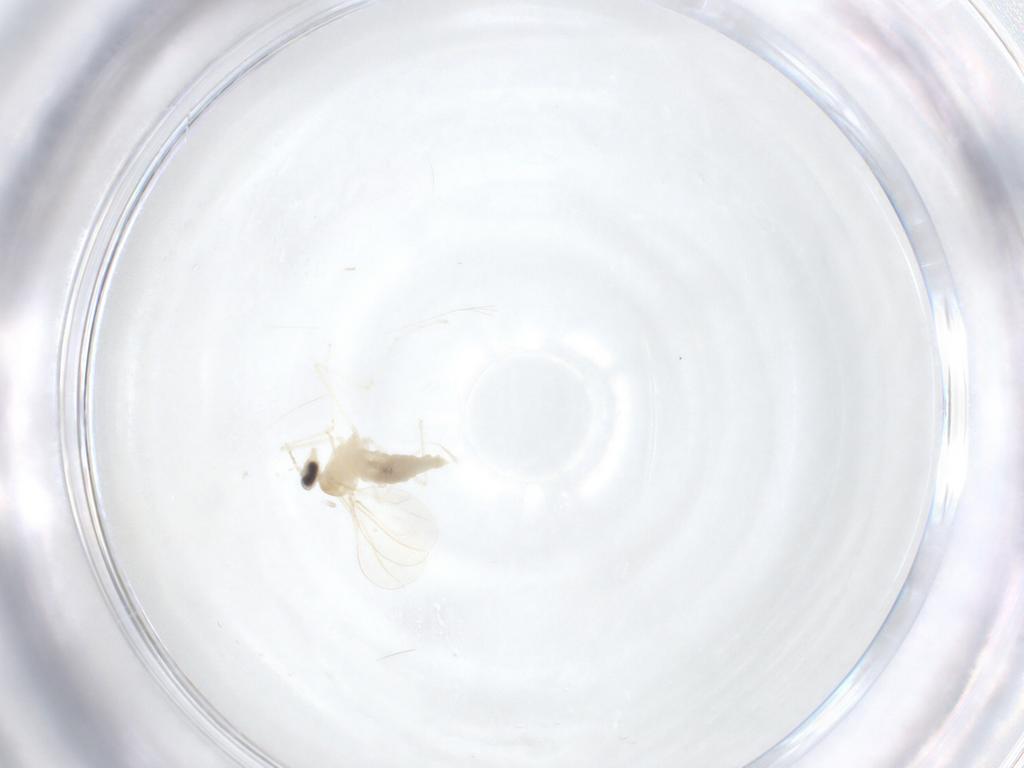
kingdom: Animalia
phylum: Arthropoda
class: Insecta
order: Diptera
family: Cecidomyiidae
